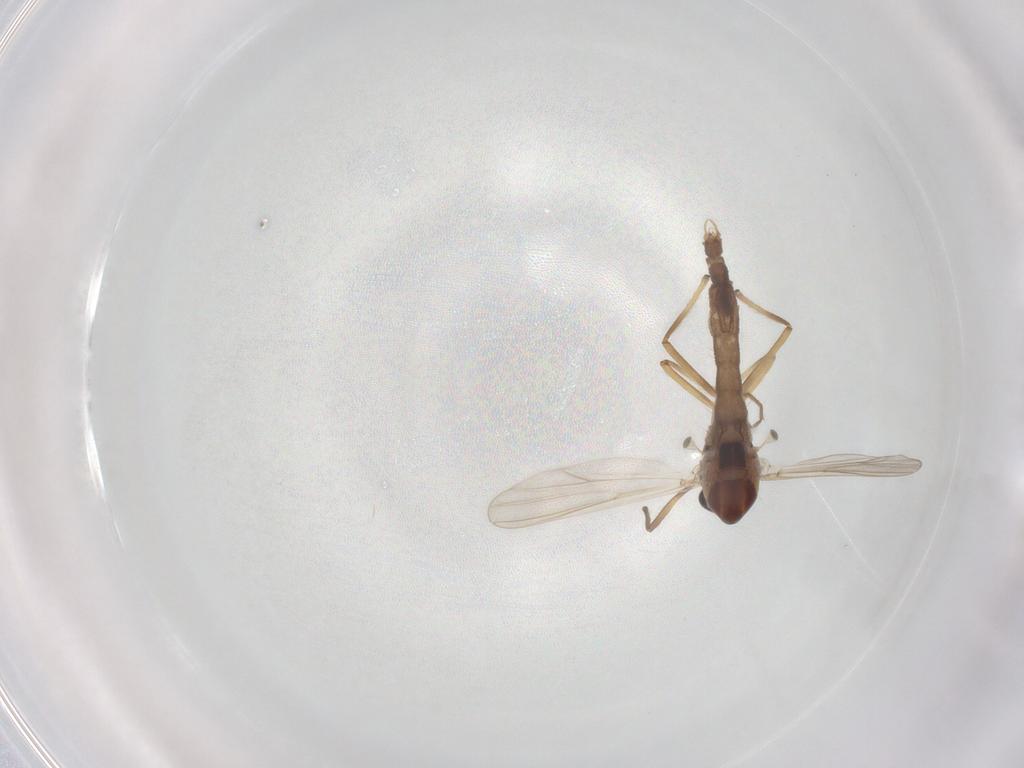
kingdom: Animalia
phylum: Arthropoda
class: Insecta
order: Diptera
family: Chironomidae
